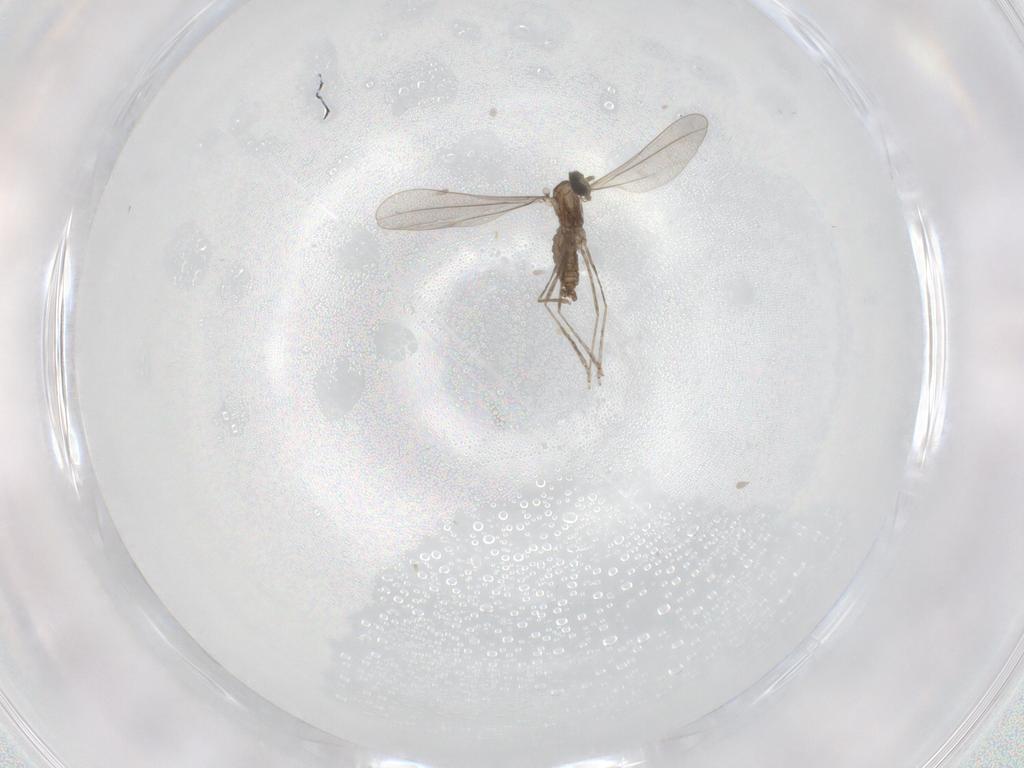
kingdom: Animalia
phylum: Arthropoda
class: Insecta
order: Diptera
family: Cecidomyiidae
